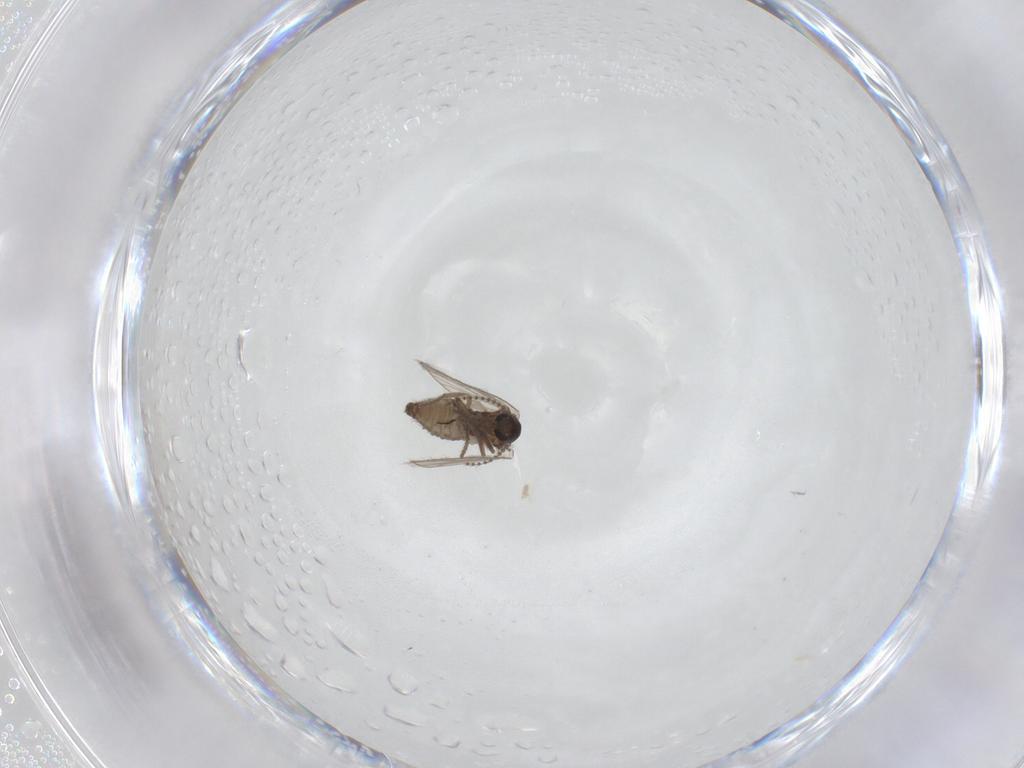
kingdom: Animalia
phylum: Arthropoda
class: Insecta
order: Diptera
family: Psychodidae
